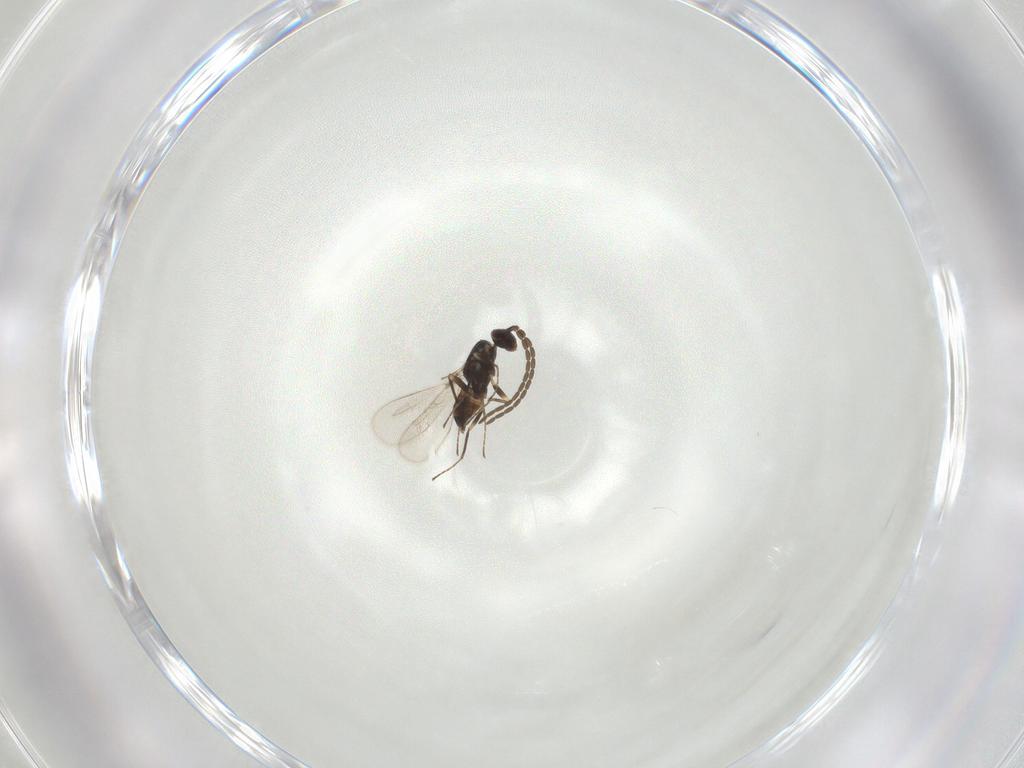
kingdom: Animalia
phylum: Arthropoda
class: Insecta
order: Hymenoptera
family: Mymaridae
